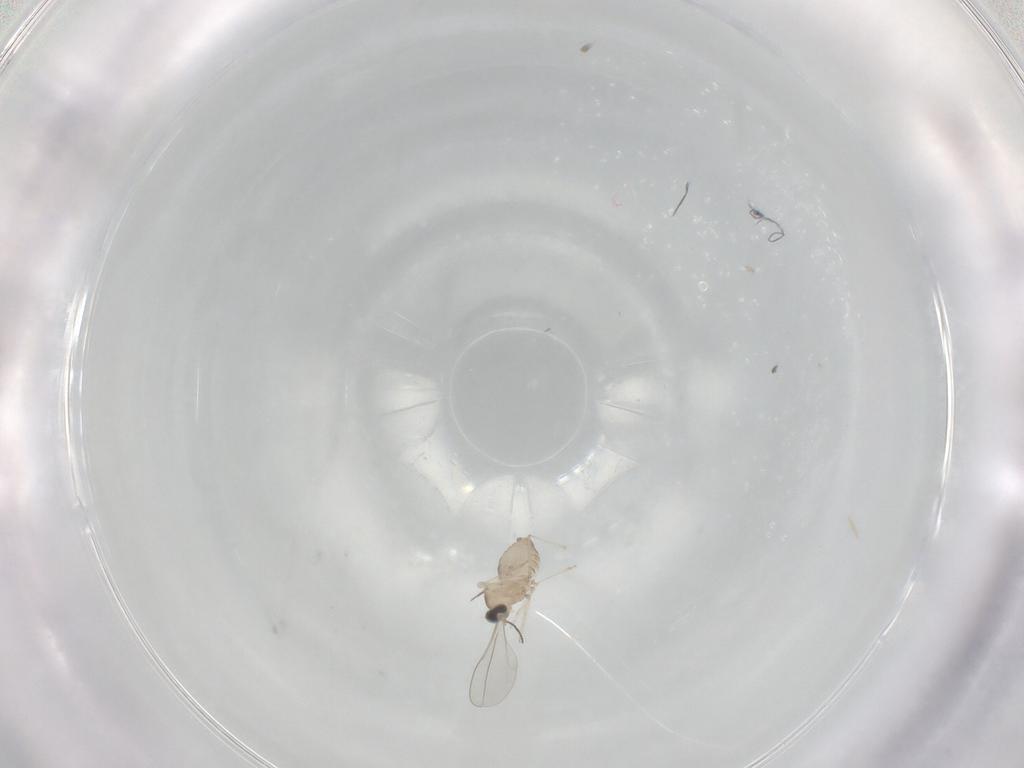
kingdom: Animalia
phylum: Arthropoda
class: Insecta
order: Diptera
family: Cecidomyiidae
